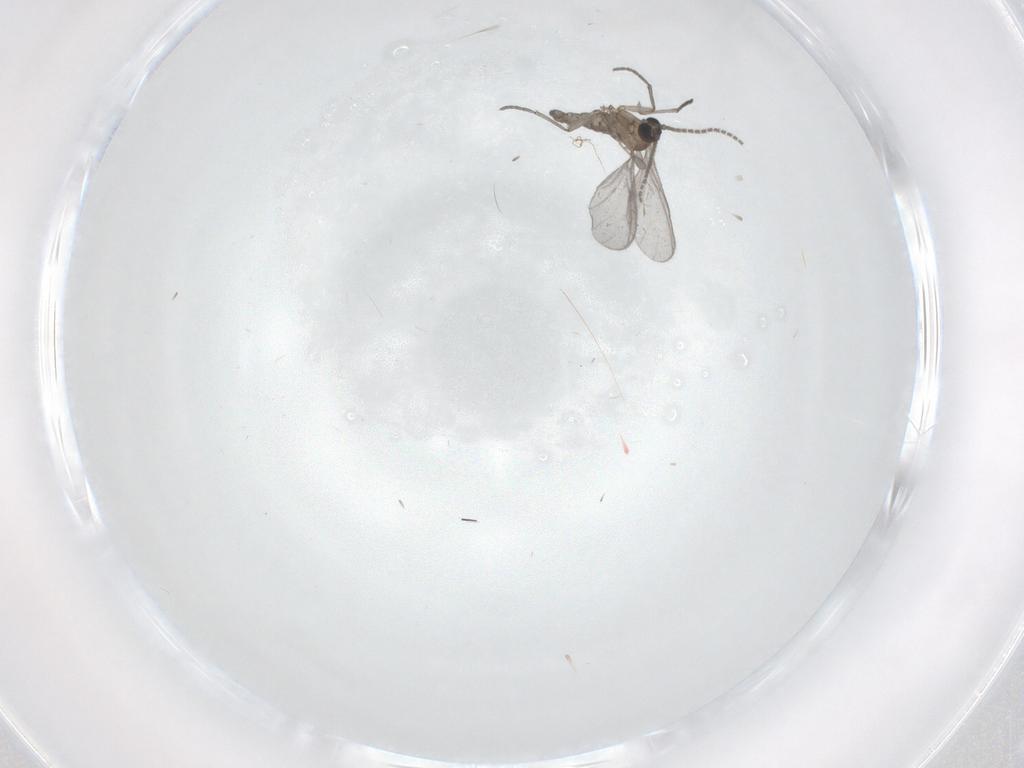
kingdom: Animalia
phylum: Arthropoda
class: Insecta
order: Diptera
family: Sciaridae
